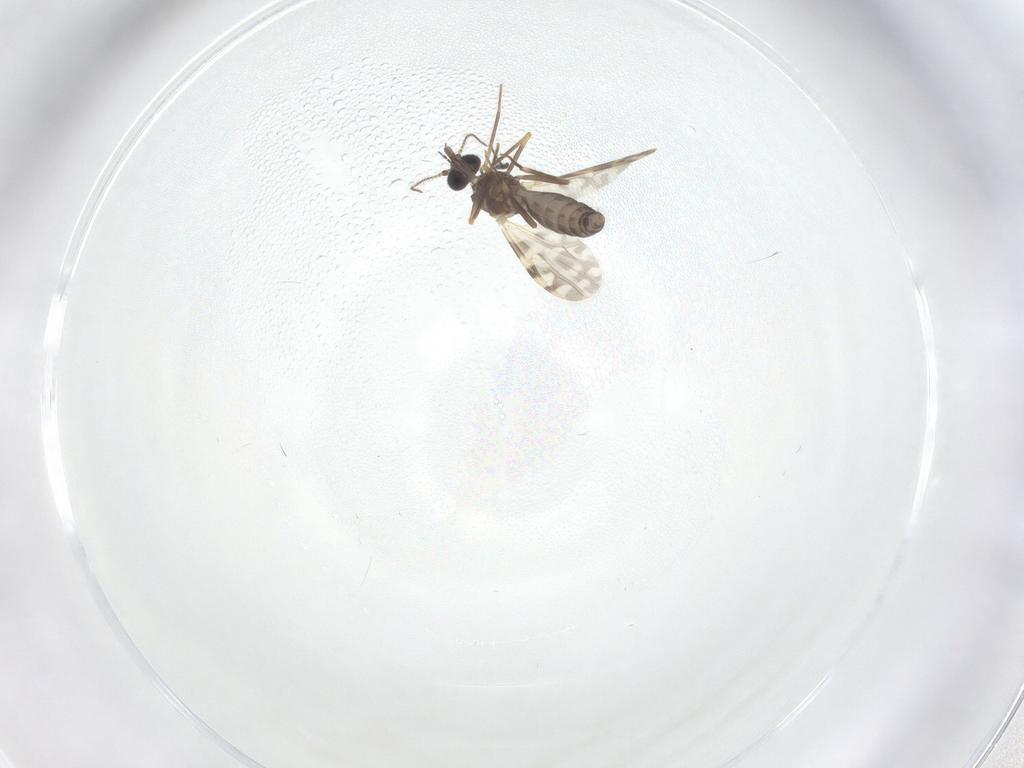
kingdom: Animalia
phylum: Arthropoda
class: Insecta
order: Diptera
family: Ceratopogonidae
